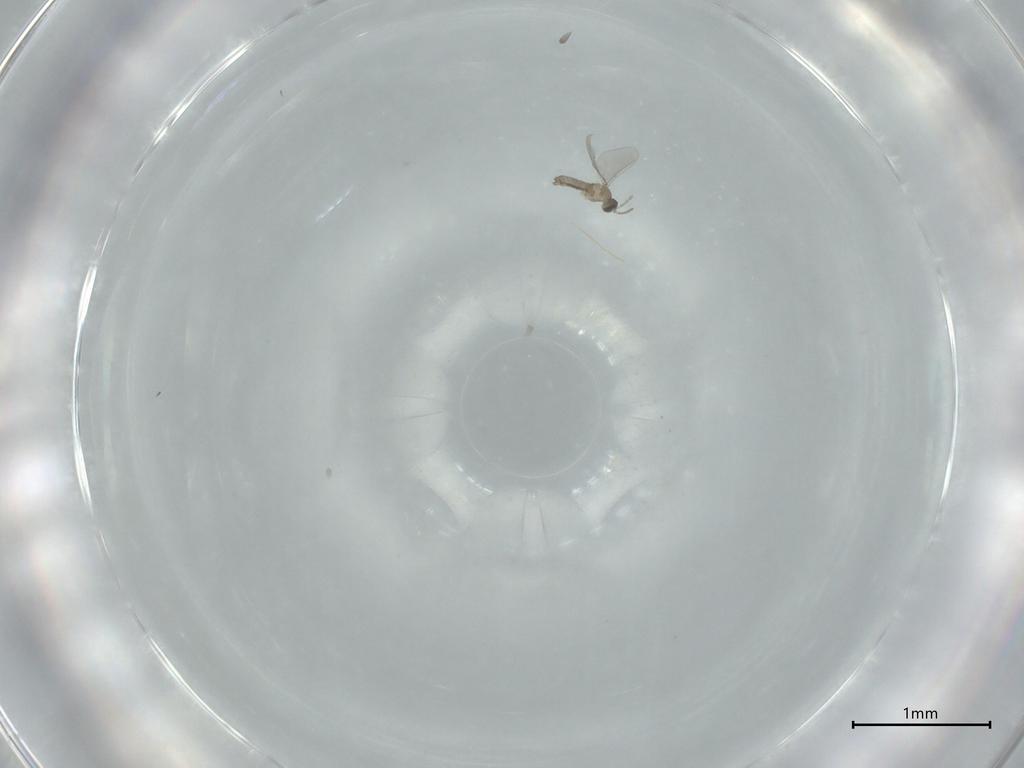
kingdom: Animalia
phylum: Arthropoda
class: Insecta
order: Diptera
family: Cecidomyiidae
